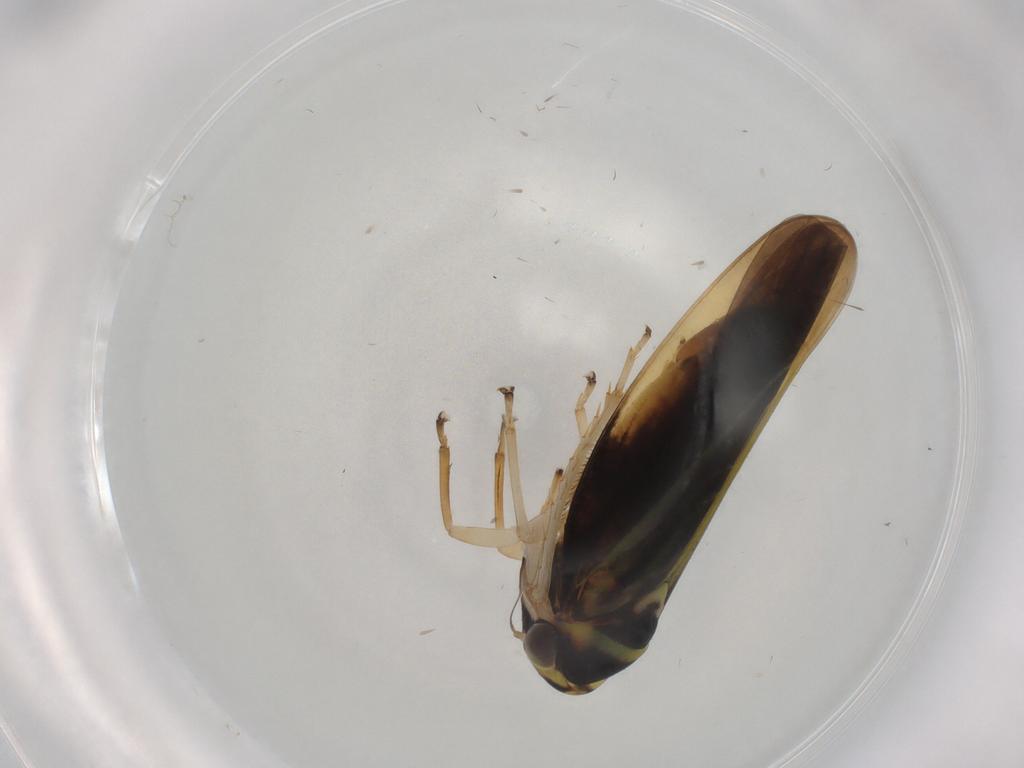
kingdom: Animalia
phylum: Arthropoda
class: Insecta
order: Hemiptera
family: Cicadellidae
